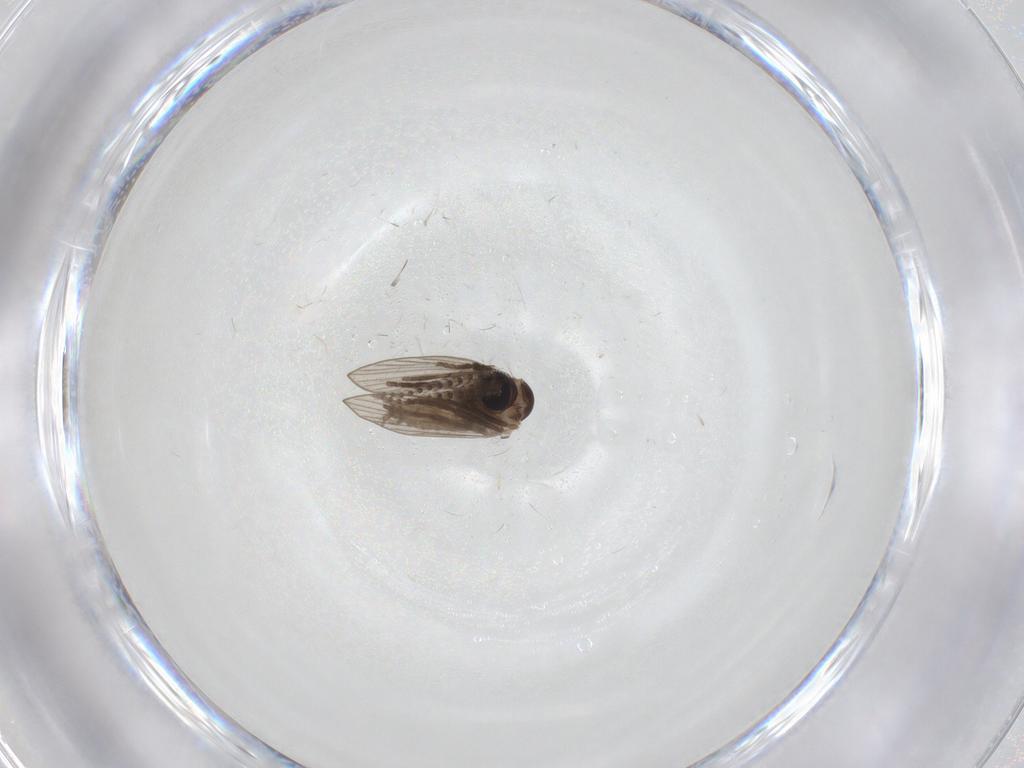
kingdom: Animalia
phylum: Arthropoda
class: Insecta
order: Diptera
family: Psychodidae
